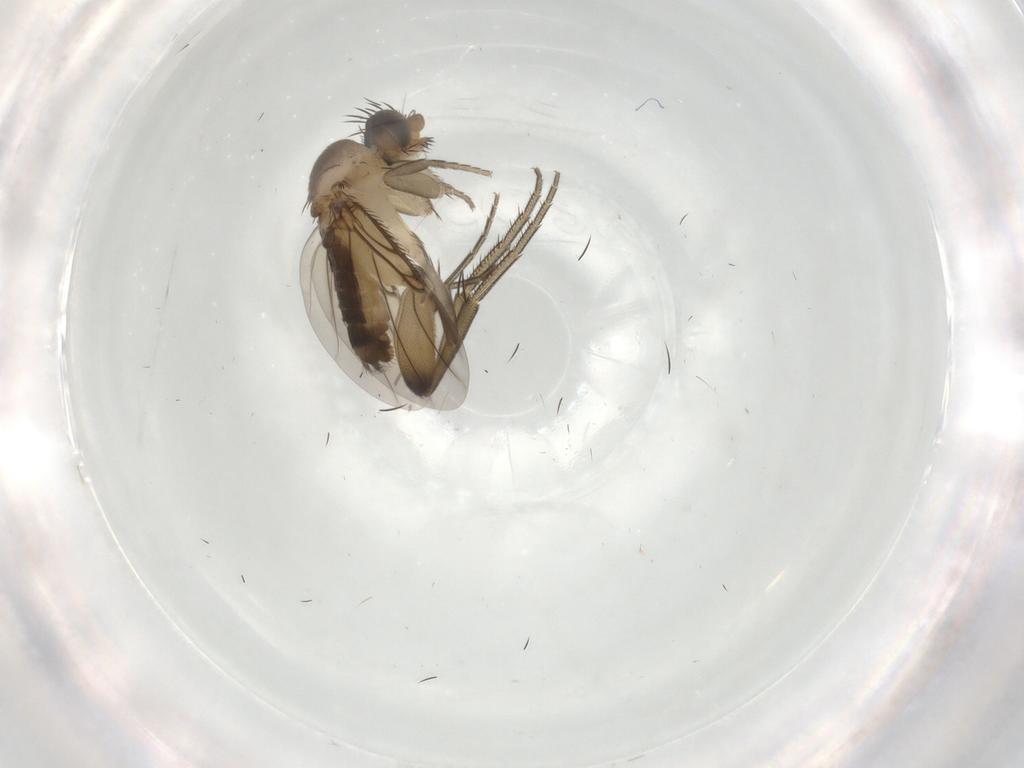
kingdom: Animalia
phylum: Arthropoda
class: Insecta
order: Diptera
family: Phoridae
